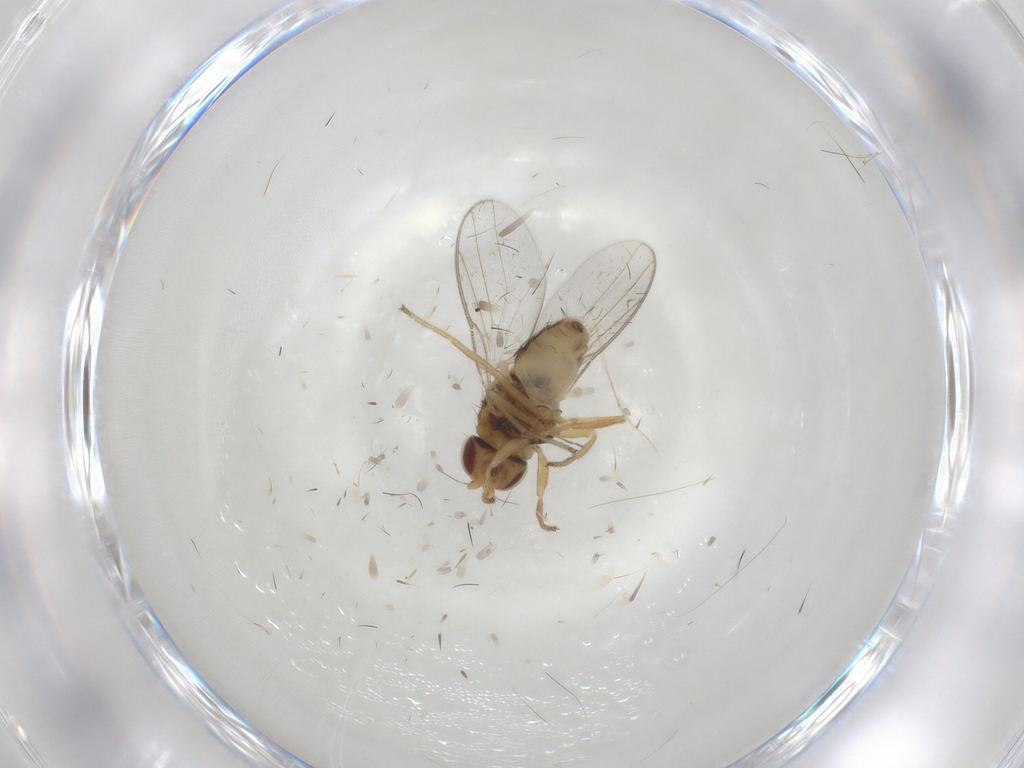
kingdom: Animalia
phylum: Arthropoda
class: Insecta
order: Diptera
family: Chloropidae
